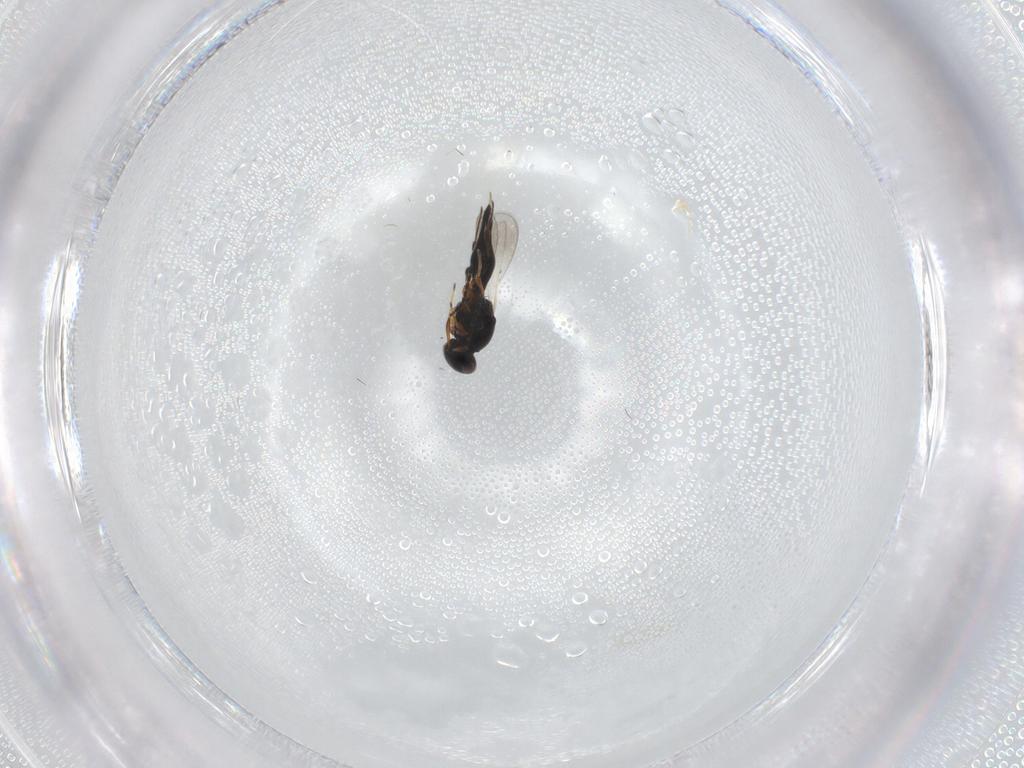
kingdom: Animalia
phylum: Arthropoda
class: Insecta
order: Hymenoptera
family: Platygastridae
